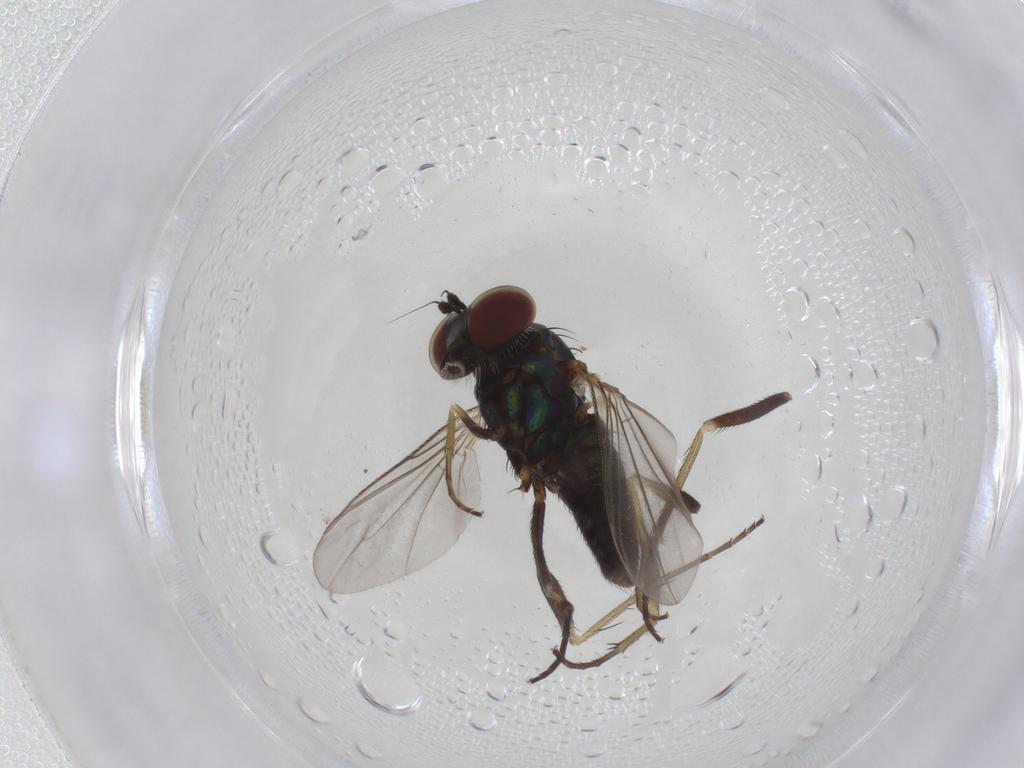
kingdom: Animalia
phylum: Arthropoda
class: Insecta
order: Diptera
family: Dolichopodidae
